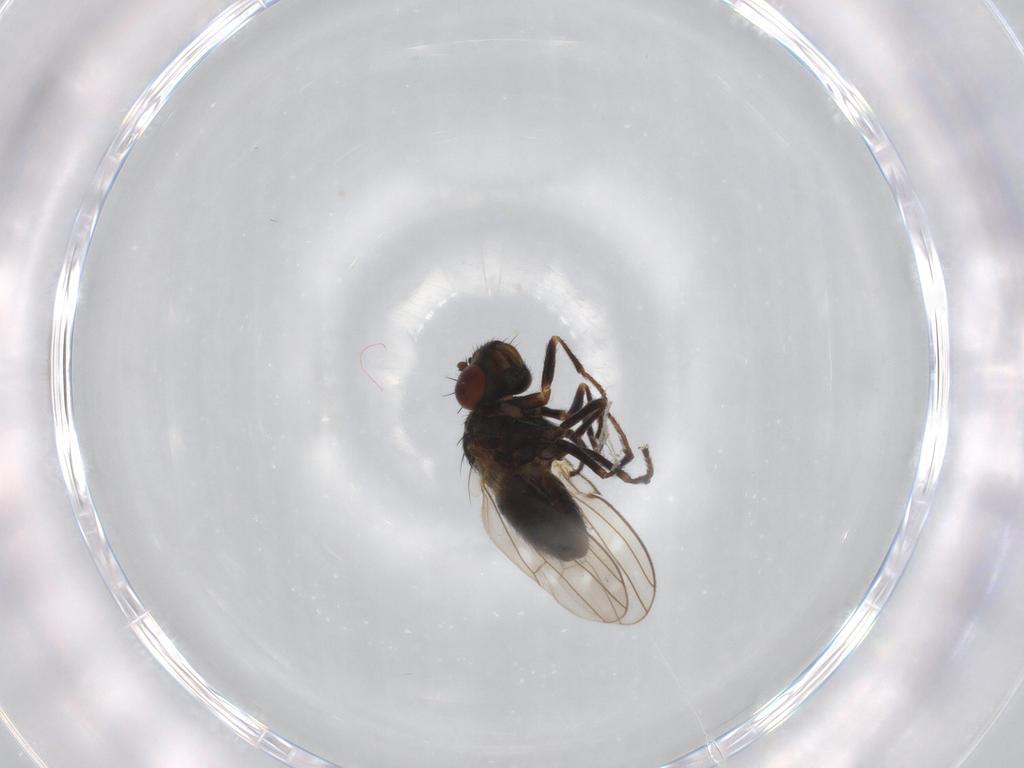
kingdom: Animalia
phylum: Arthropoda
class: Insecta
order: Diptera
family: Ephydridae
